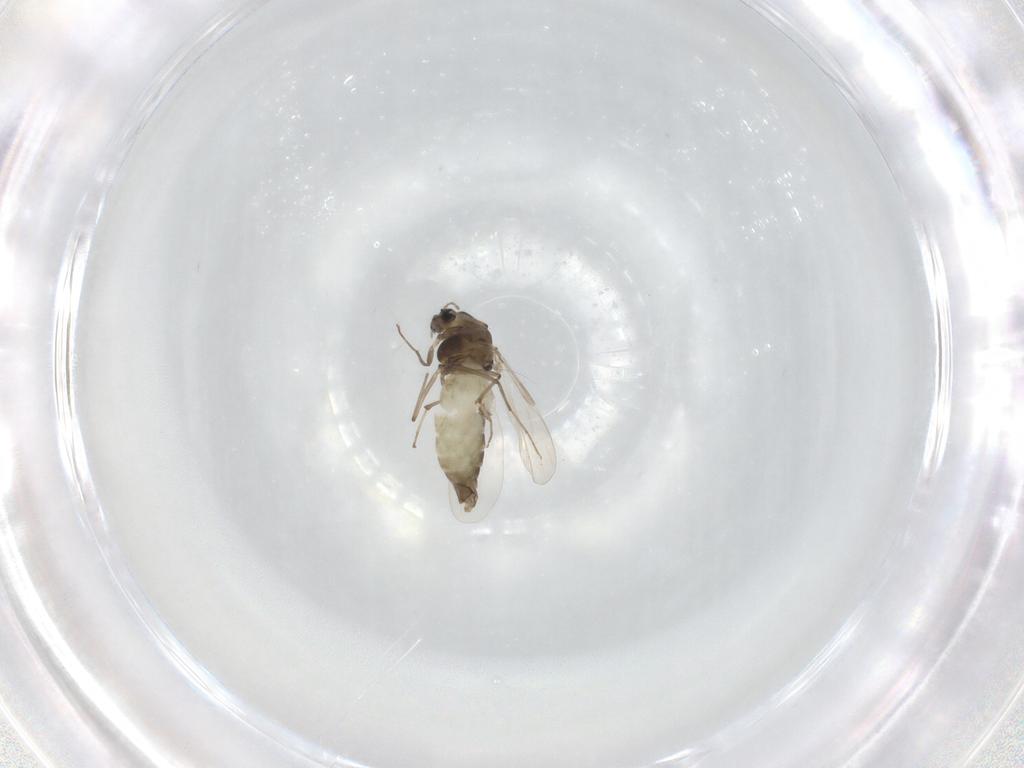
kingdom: Animalia
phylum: Arthropoda
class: Insecta
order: Diptera
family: Chironomidae
